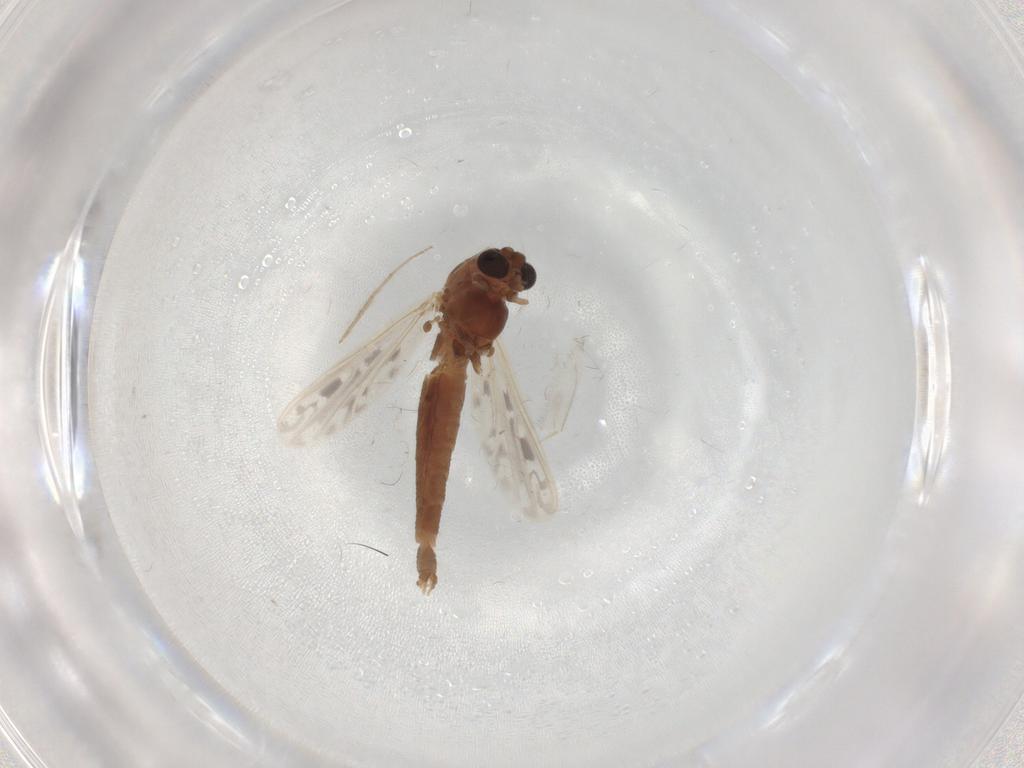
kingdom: Animalia
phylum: Arthropoda
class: Insecta
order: Diptera
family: Chironomidae
